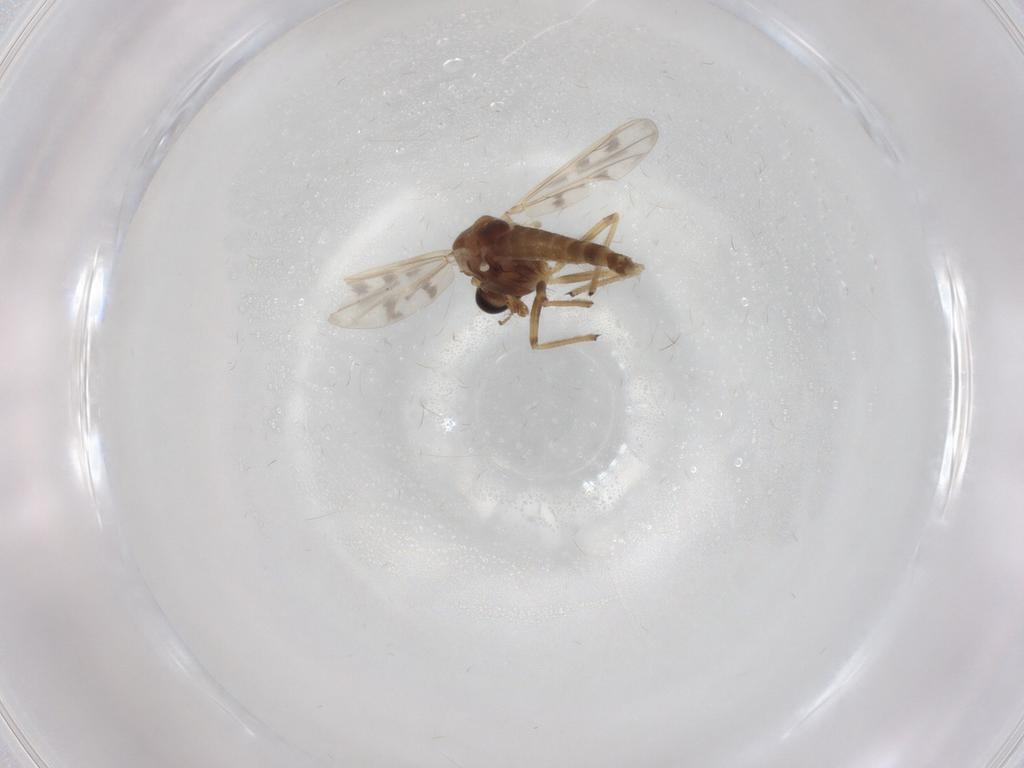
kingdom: Animalia
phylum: Arthropoda
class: Insecta
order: Diptera
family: Chironomidae
